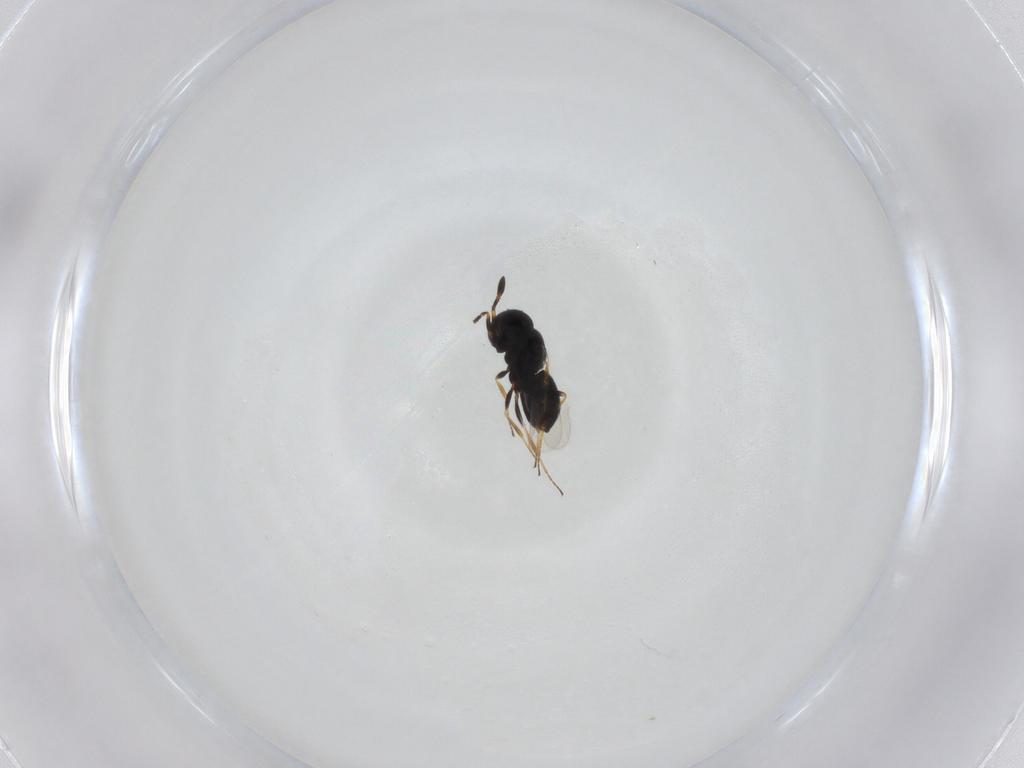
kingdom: Animalia
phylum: Arthropoda
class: Insecta
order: Hymenoptera
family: Scelionidae
